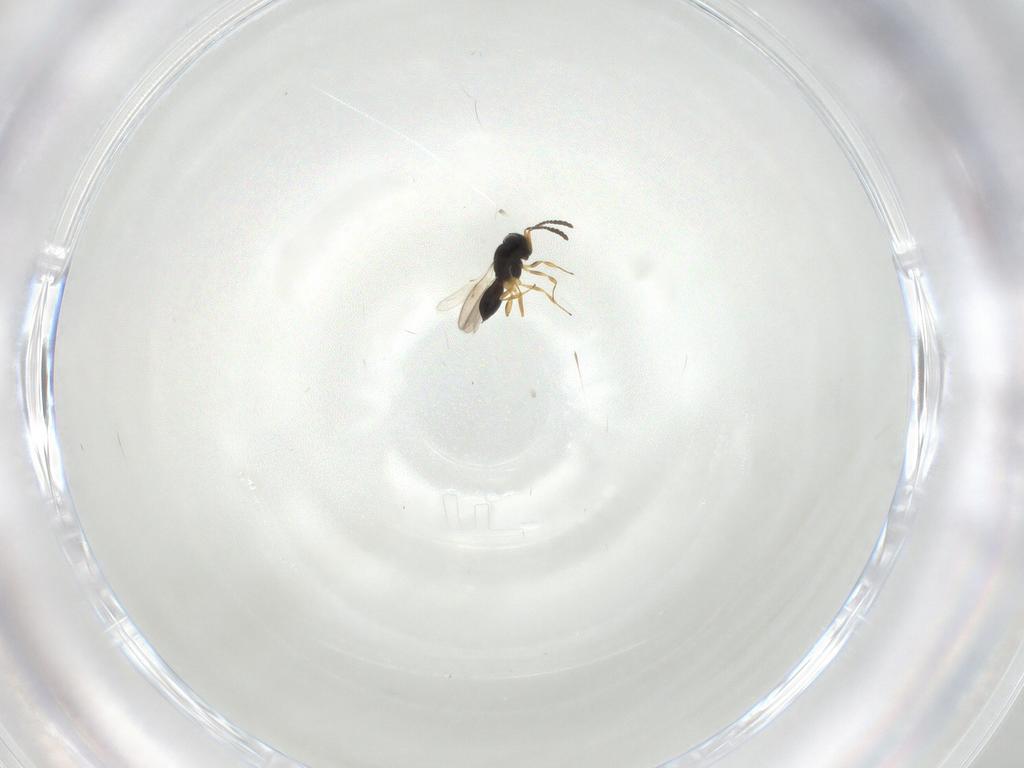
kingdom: Animalia
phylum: Arthropoda
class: Insecta
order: Hymenoptera
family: Scelionidae
